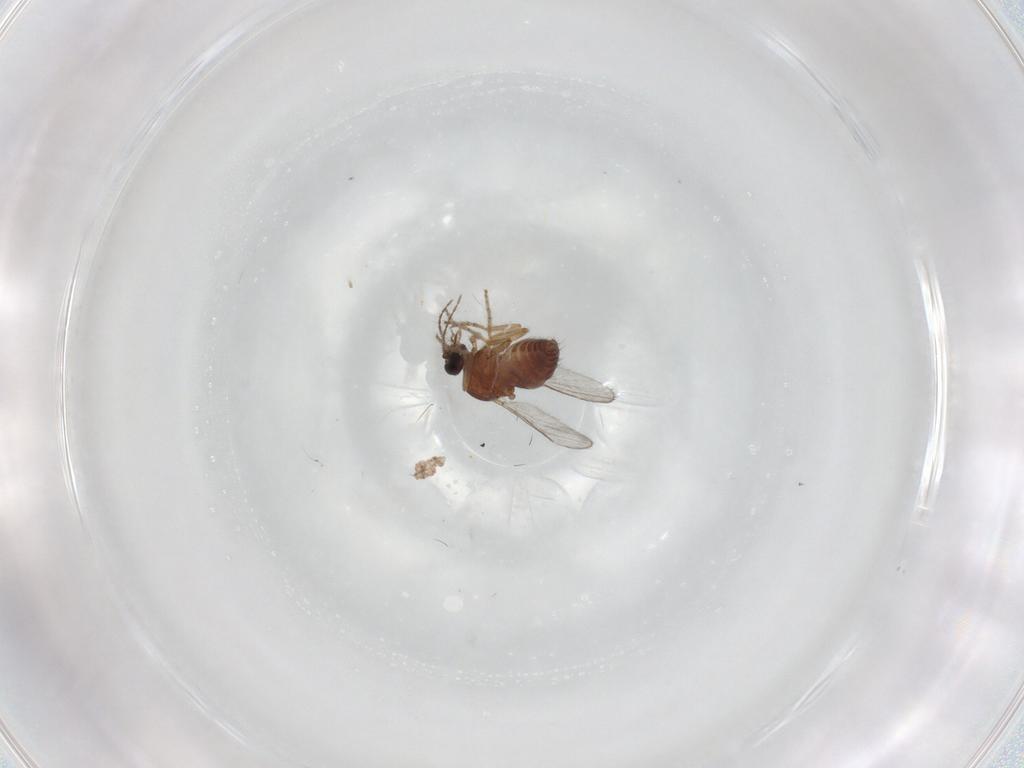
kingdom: Animalia
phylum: Arthropoda
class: Insecta
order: Diptera
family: Ceratopogonidae
